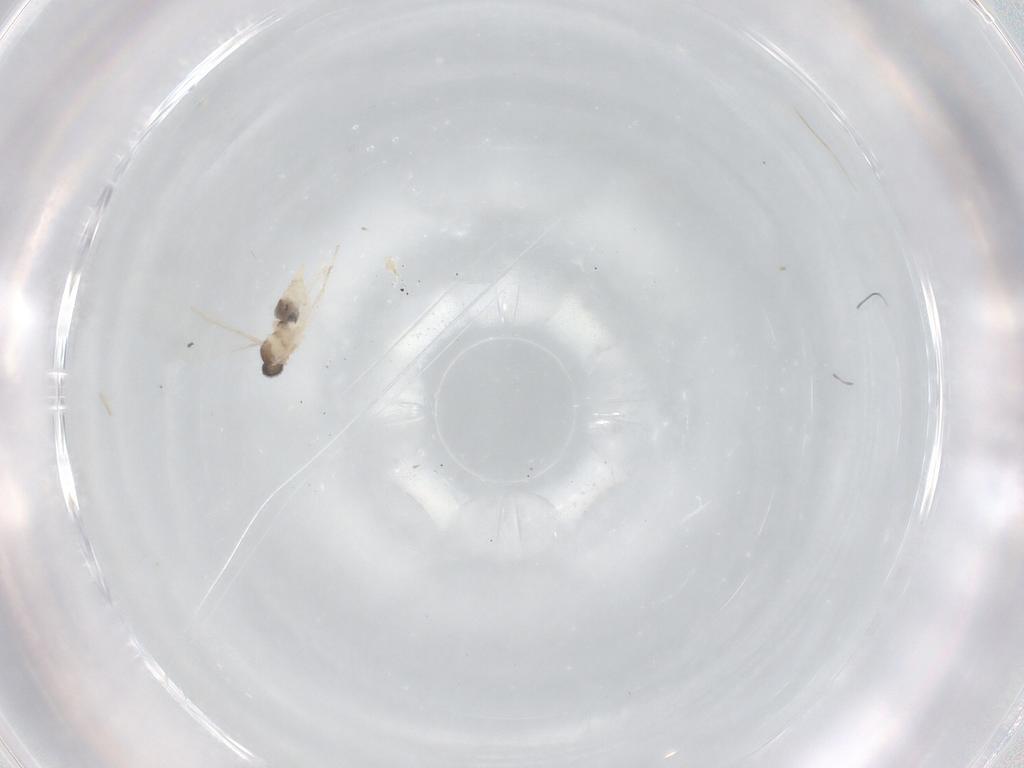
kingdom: Animalia
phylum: Arthropoda
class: Insecta
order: Diptera
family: Cecidomyiidae
